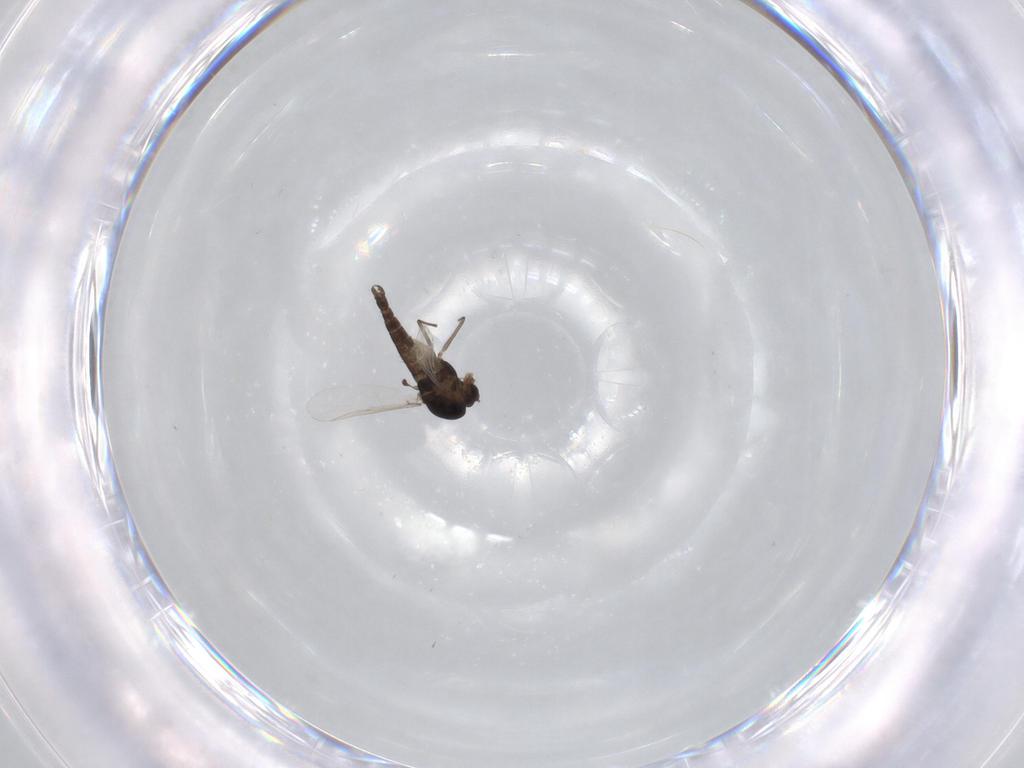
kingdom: Animalia
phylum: Arthropoda
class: Insecta
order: Diptera
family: Chironomidae
